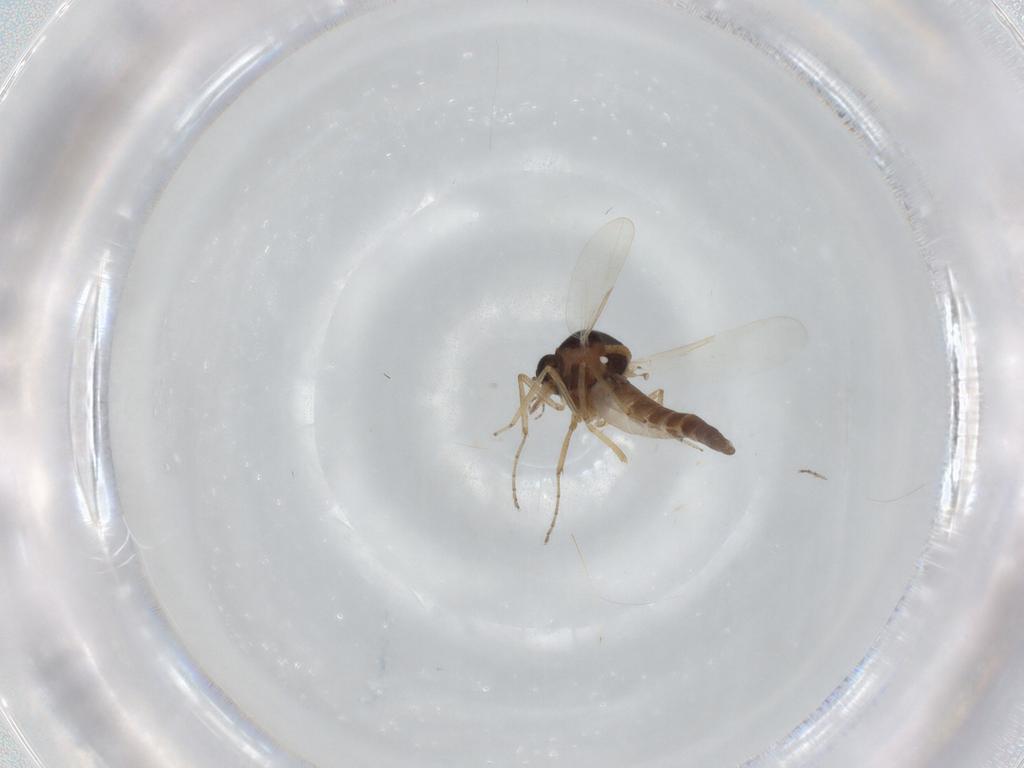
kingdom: Animalia
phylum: Arthropoda
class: Insecta
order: Diptera
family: Ceratopogonidae
